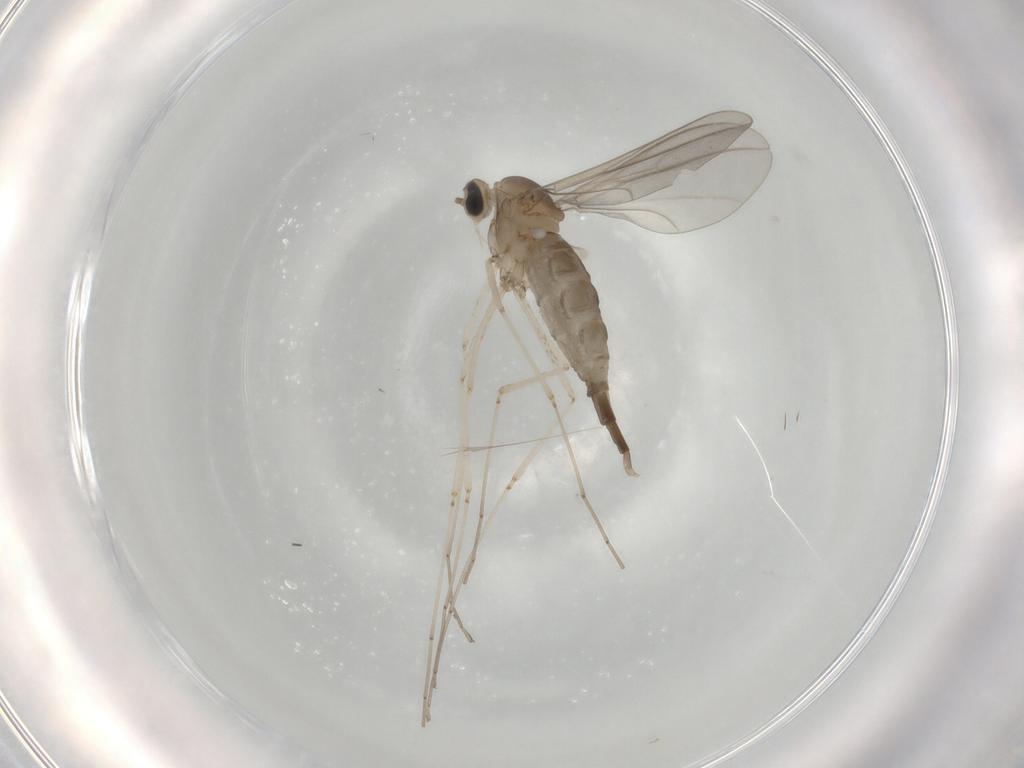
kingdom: Animalia
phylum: Arthropoda
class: Insecta
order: Diptera
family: Cecidomyiidae
